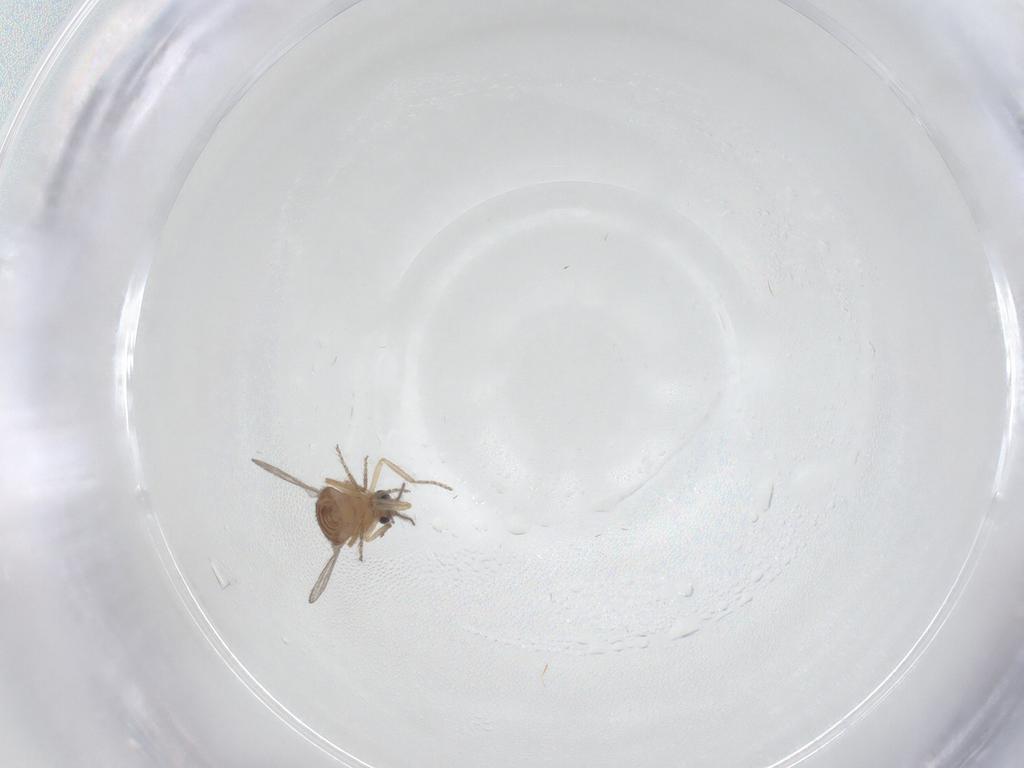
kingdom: Animalia
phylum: Arthropoda
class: Insecta
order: Diptera
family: Ceratopogonidae
